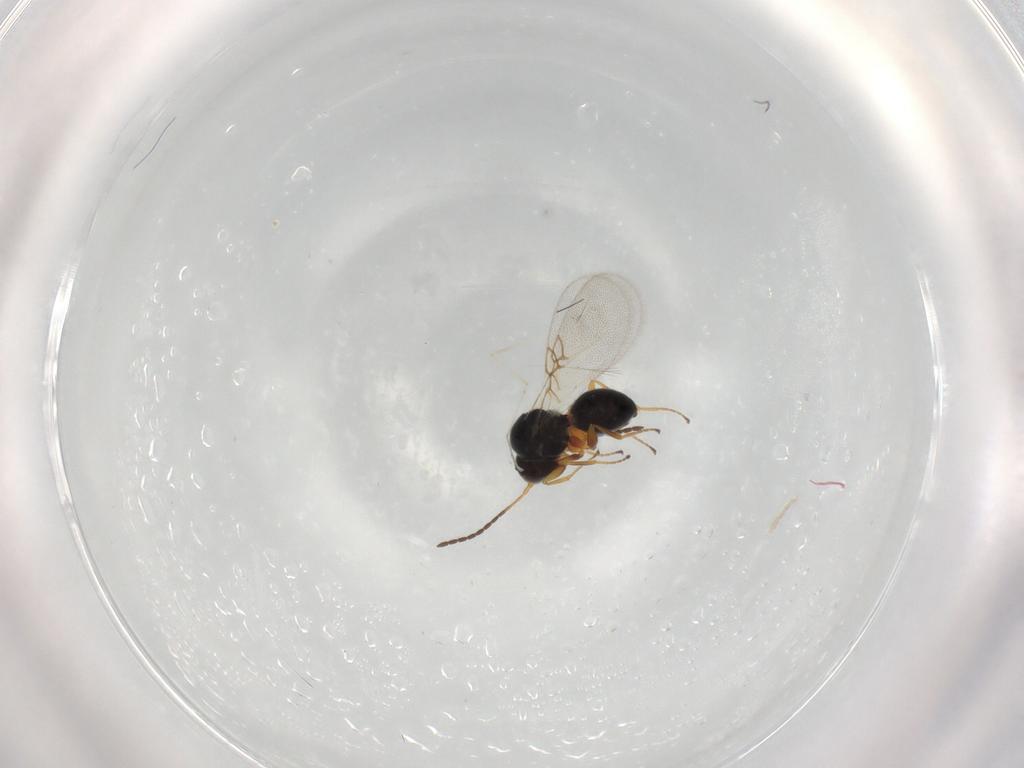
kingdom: Animalia
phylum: Arthropoda
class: Insecta
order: Hymenoptera
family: Figitidae
